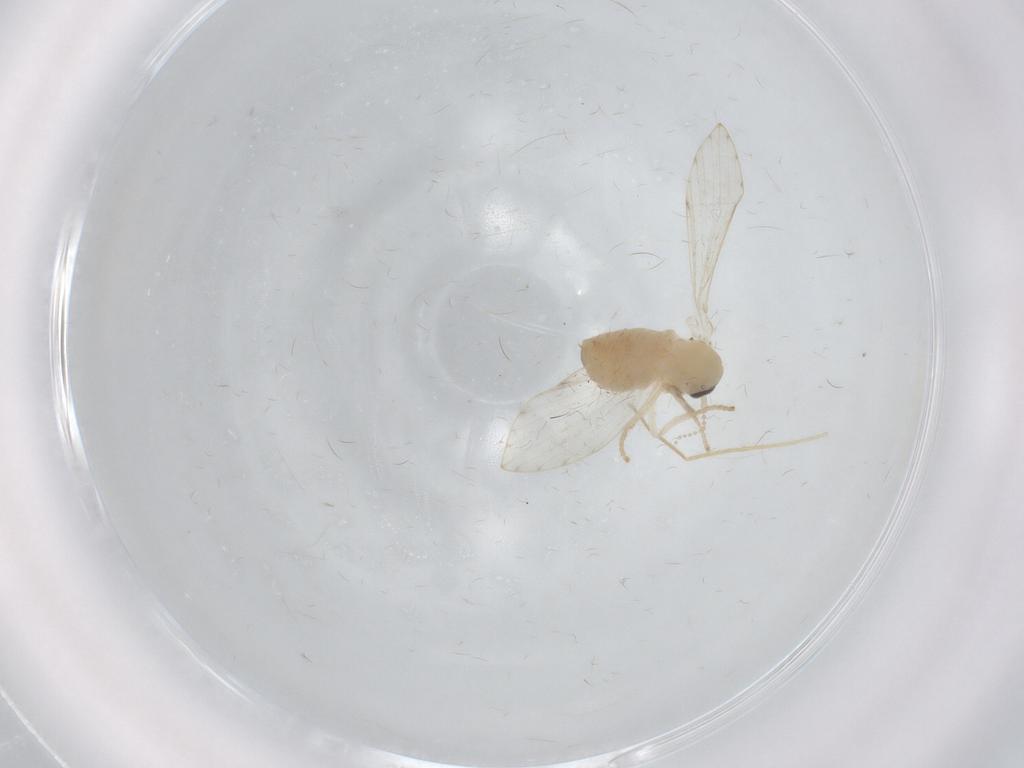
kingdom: Animalia
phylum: Arthropoda
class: Insecta
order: Diptera
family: Psychodidae
